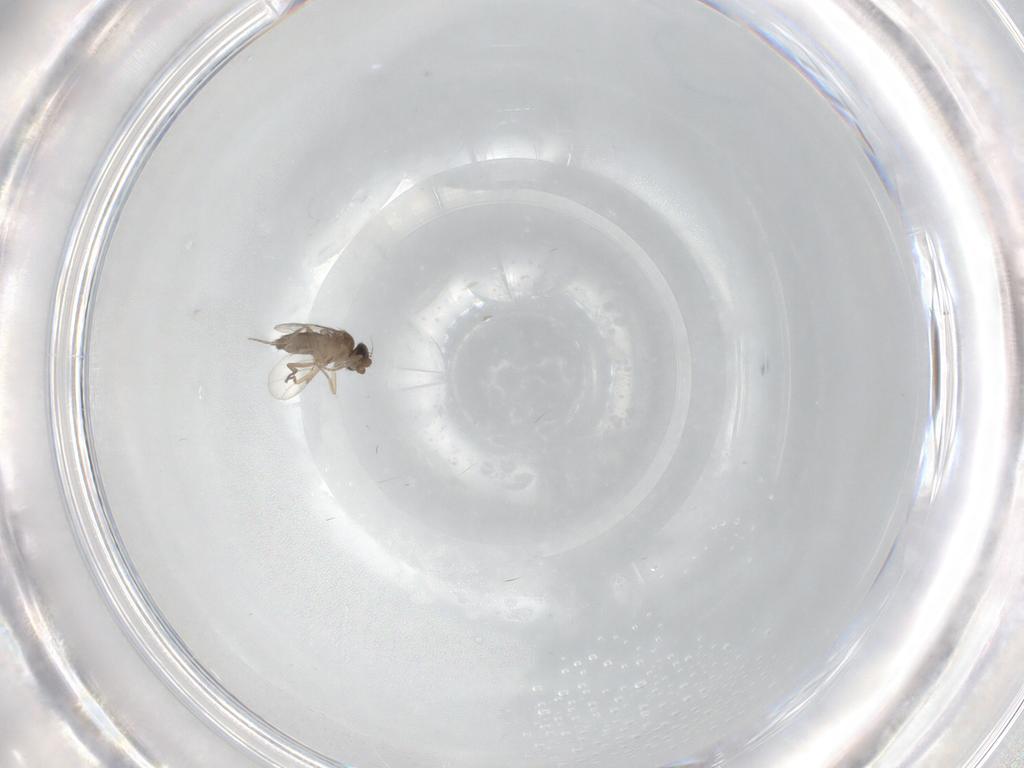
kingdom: Animalia
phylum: Arthropoda
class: Insecta
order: Diptera
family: Phoridae
